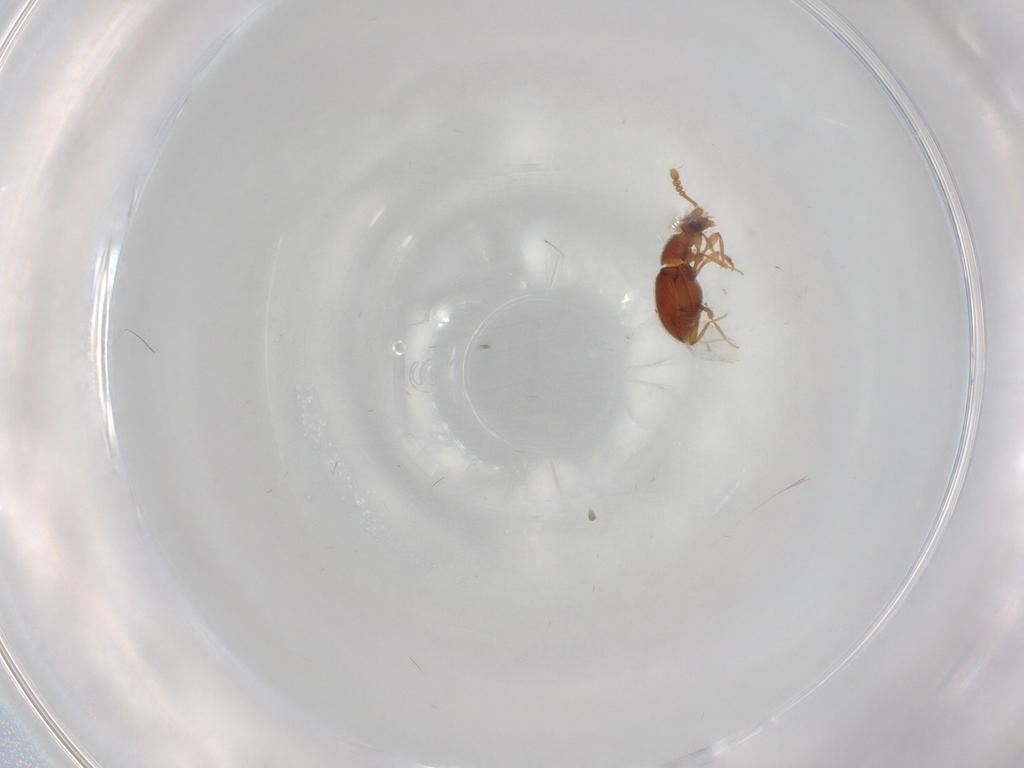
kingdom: Animalia
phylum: Arthropoda
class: Insecta
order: Coleoptera
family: Staphylinidae
